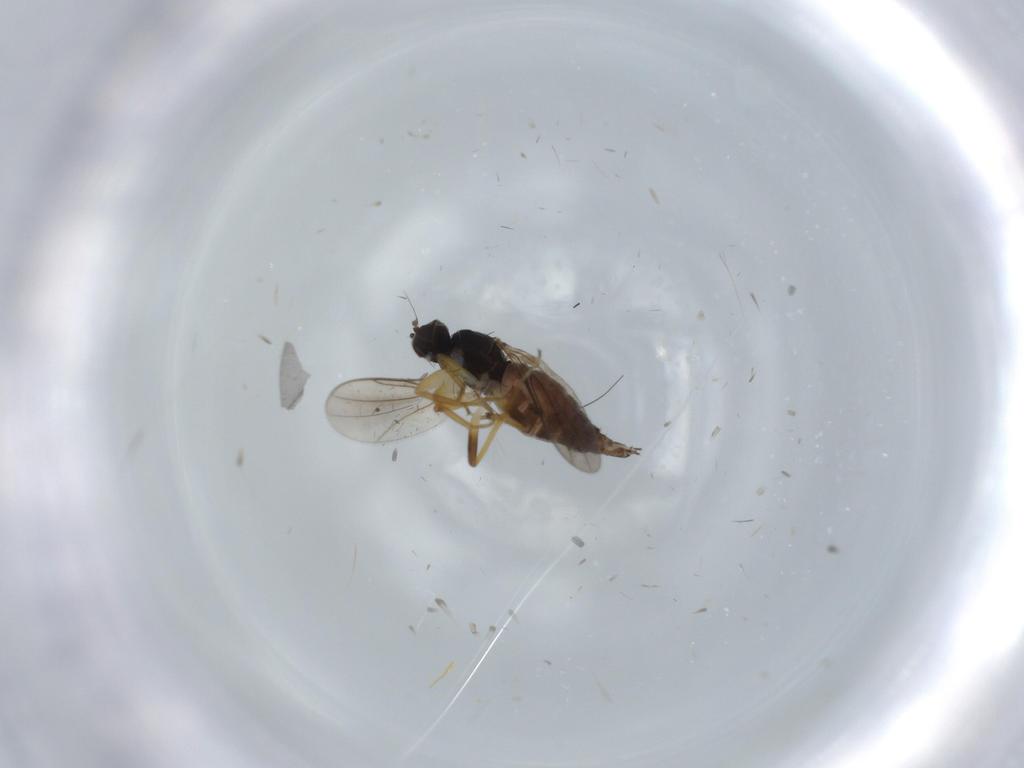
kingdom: Animalia
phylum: Arthropoda
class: Insecta
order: Diptera
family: Hybotidae
